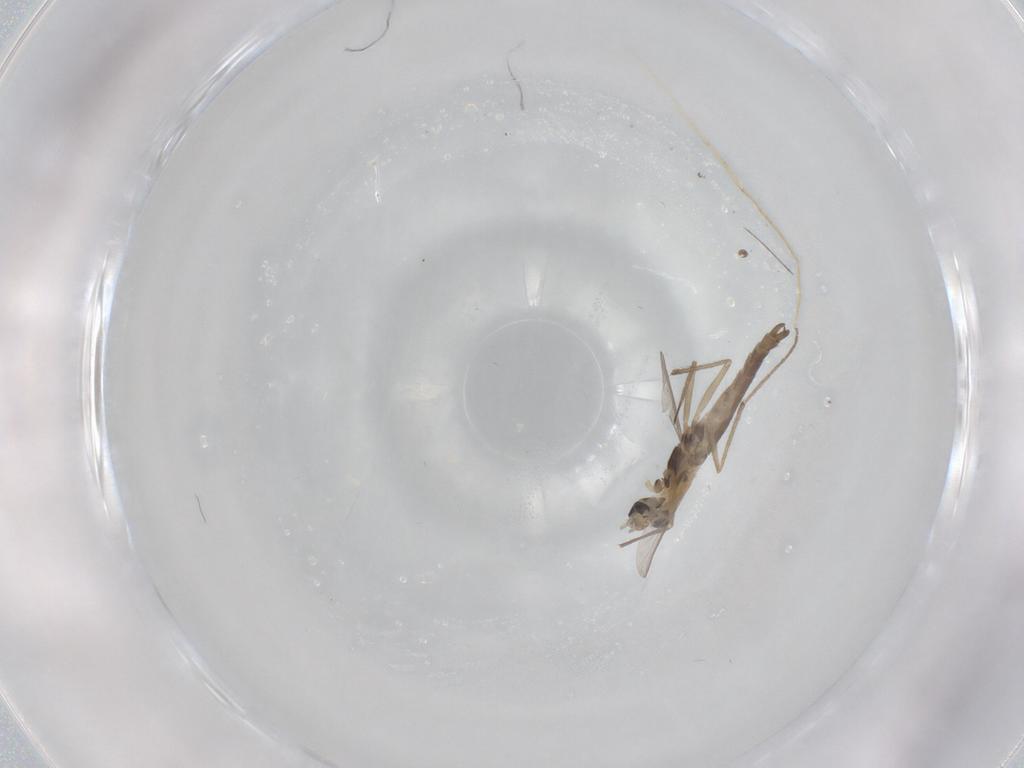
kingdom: Animalia
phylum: Arthropoda
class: Insecta
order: Diptera
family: Chironomidae
